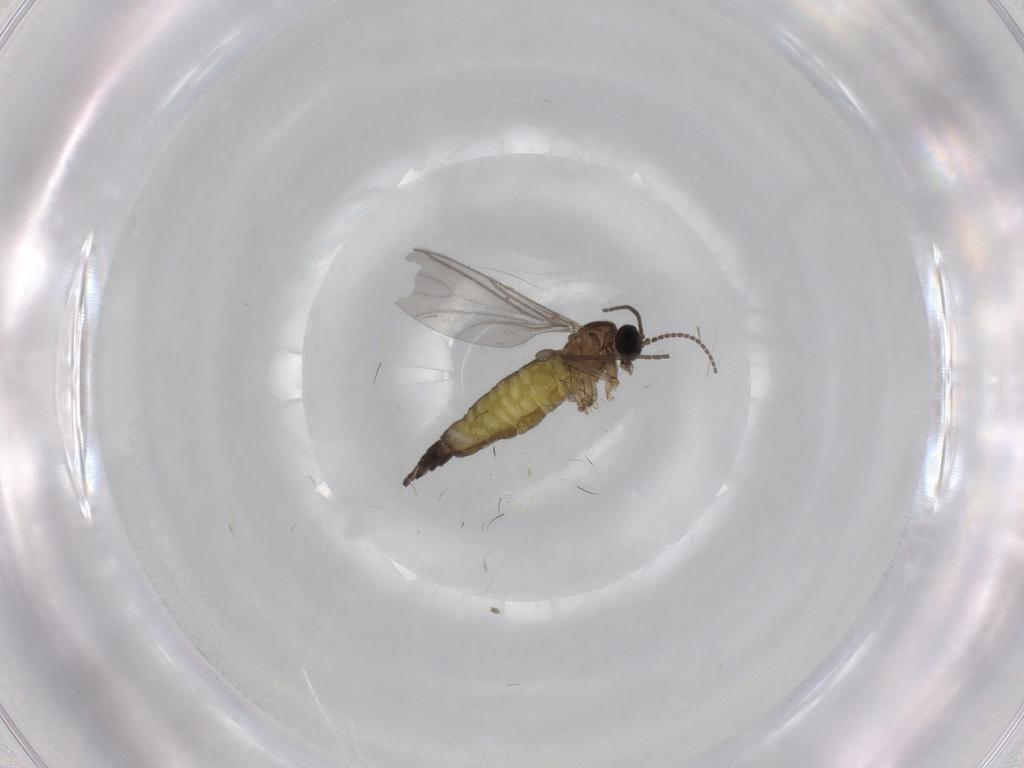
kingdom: Animalia
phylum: Arthropoda
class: Insecta
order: Diptera
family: Sciaridae
